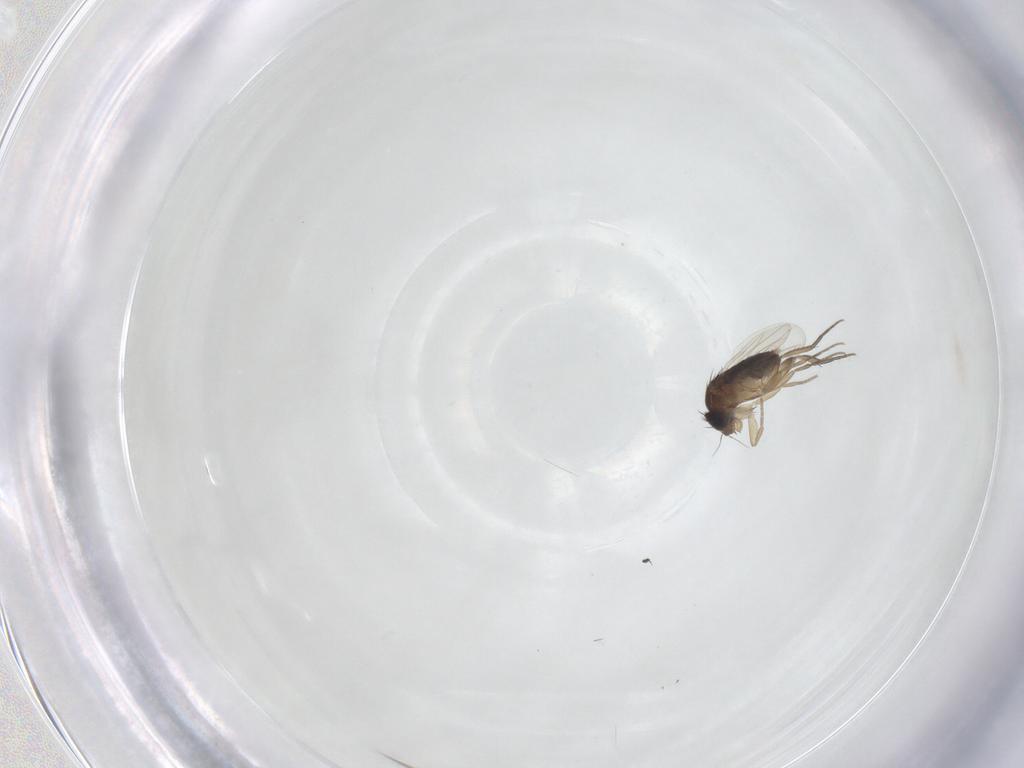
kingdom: Animalia
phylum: Arthropoda
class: Insecta
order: Diptera
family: Phoridae
